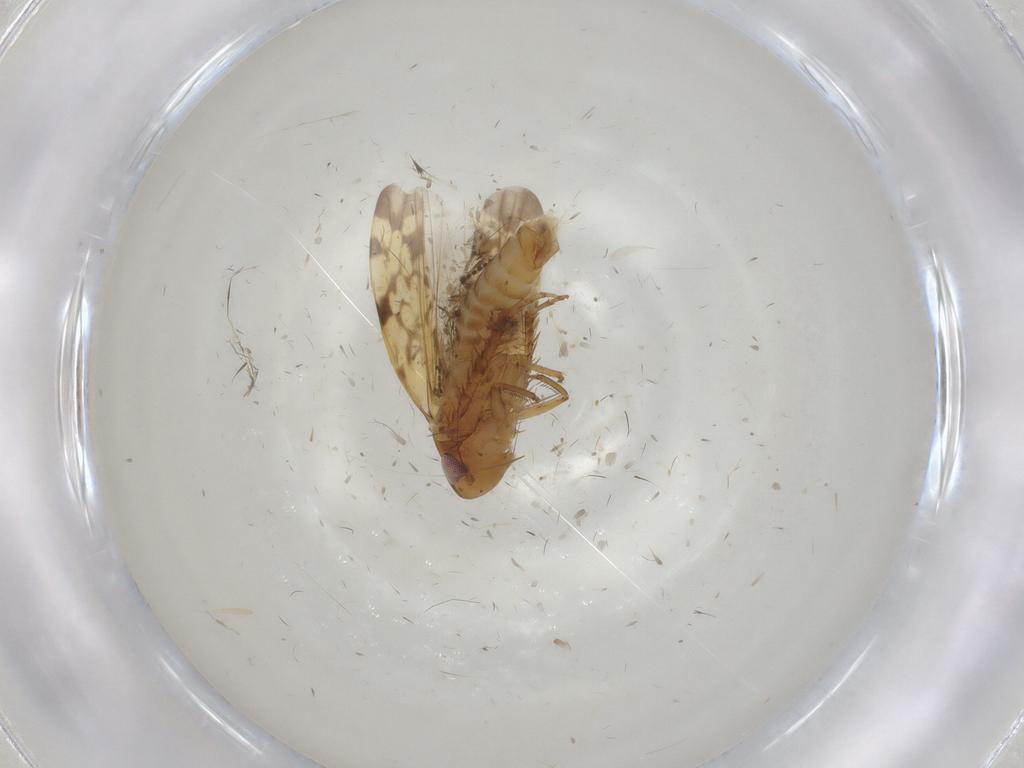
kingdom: Animalia
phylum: Arthropoda
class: Insecta
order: Hemiptera
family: Cicadellidae
